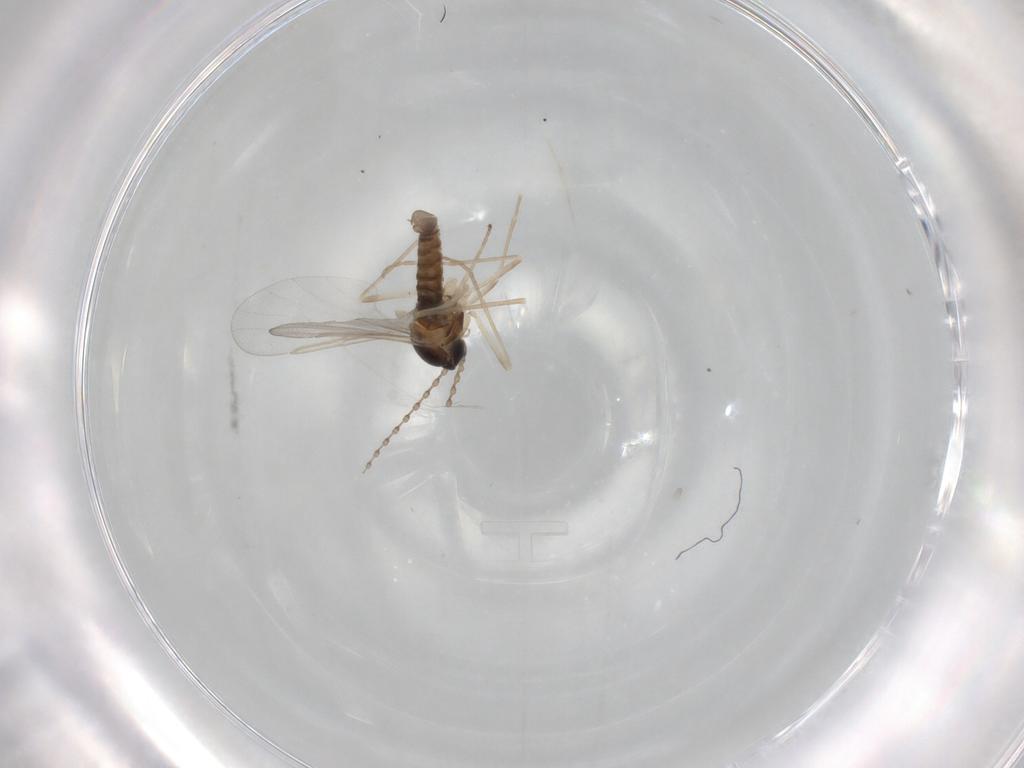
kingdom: Animalia
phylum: Arthropoda
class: Insecta
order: Diptera
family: Cecidomyiidae
